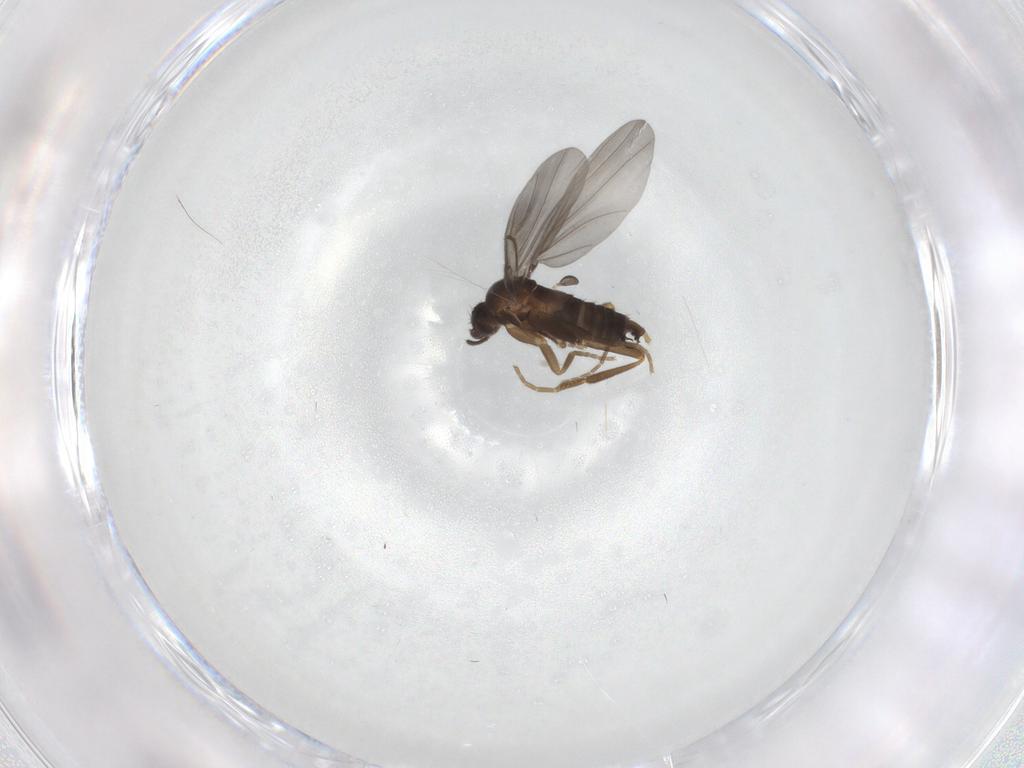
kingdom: Animalia
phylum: Arthropoda
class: Insecta
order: Diptera
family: Phoridae
